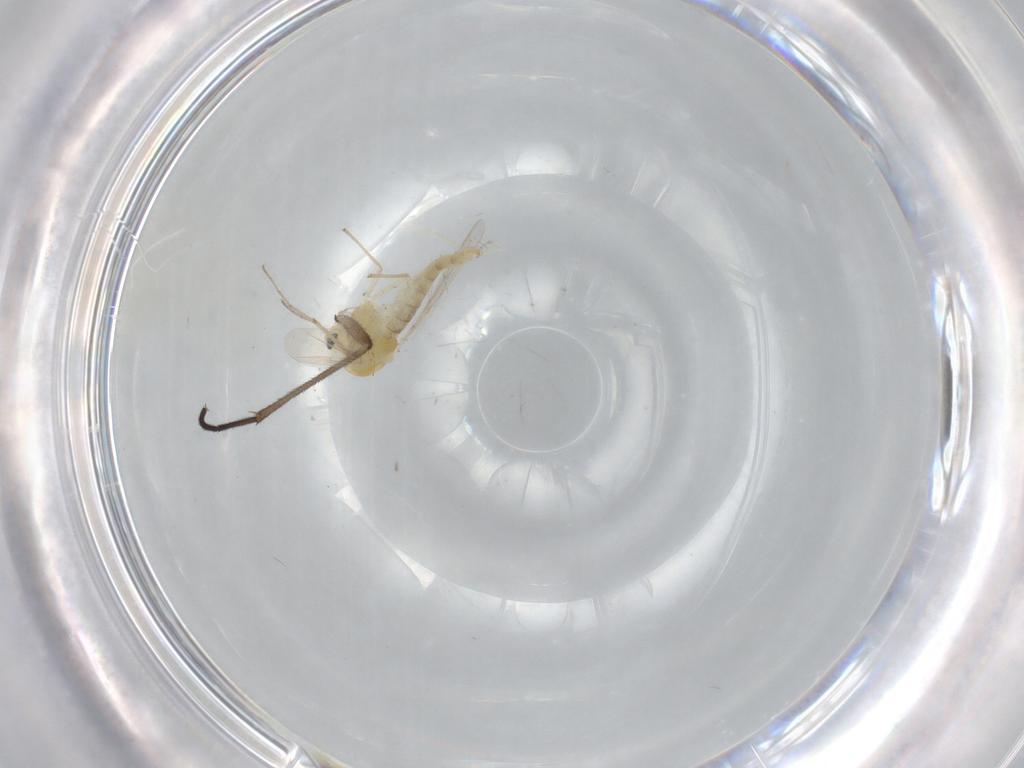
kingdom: Animalia
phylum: Arthropoda
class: Insecta
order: Diptera
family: Chironomidae
